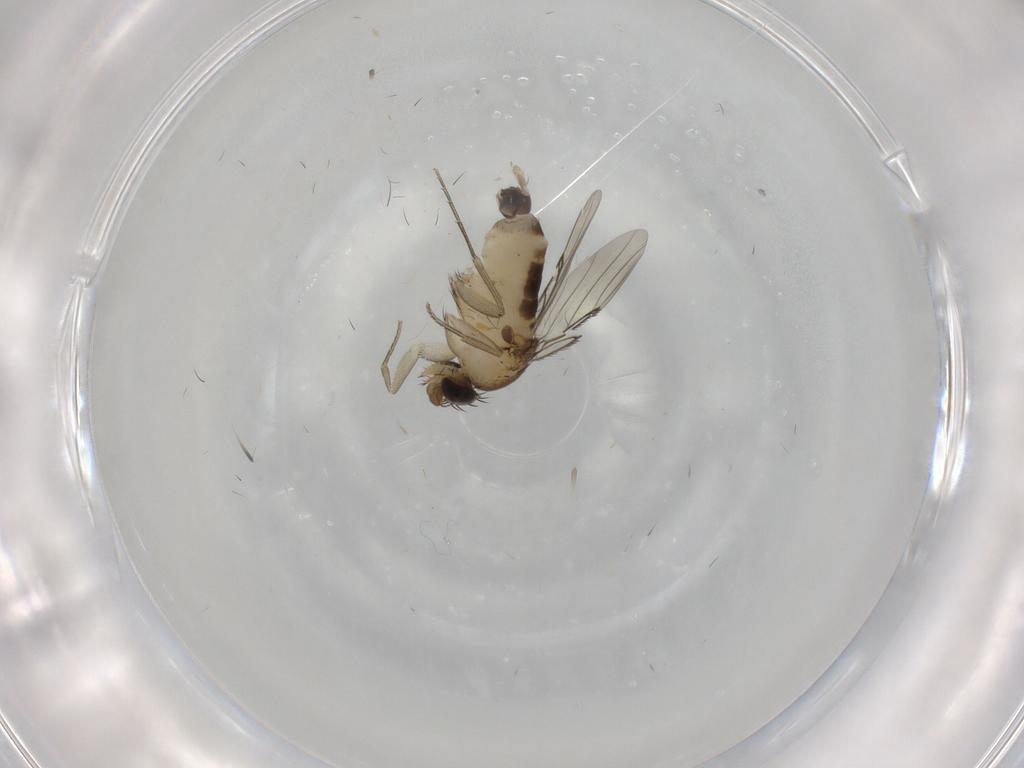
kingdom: Animalia
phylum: Arthropoda
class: Insecta
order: Diptera
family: Phoridae
